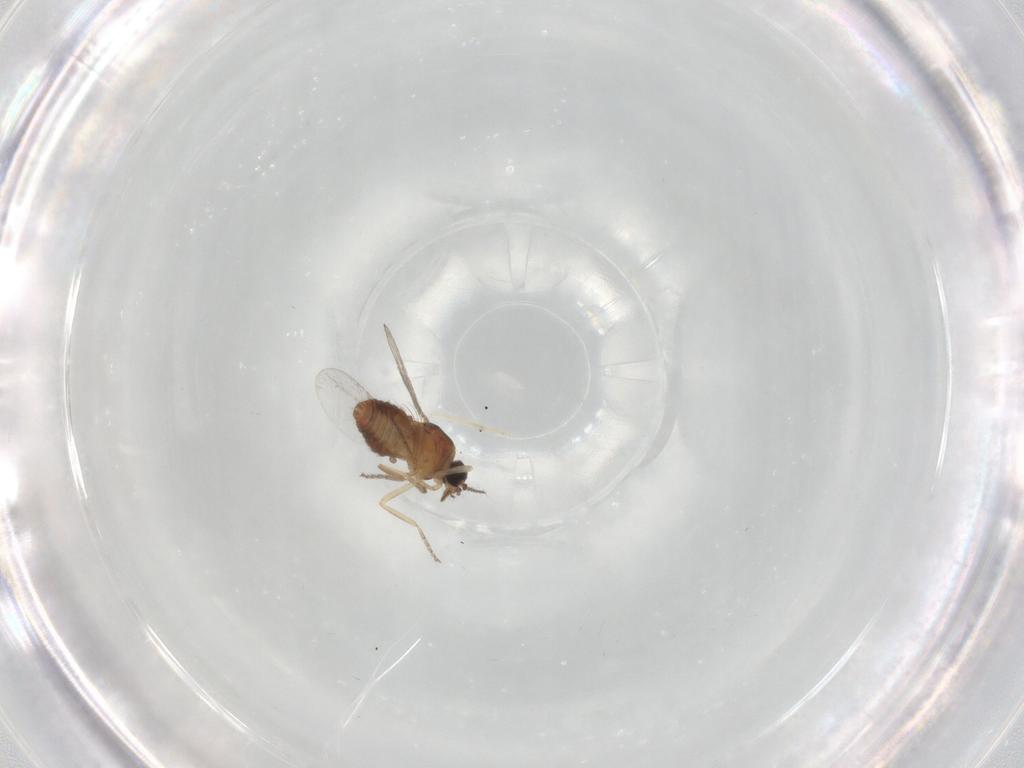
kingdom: Animalia
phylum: Arthropoda
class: Insecta
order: Diptera
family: Ceratopogonidae
